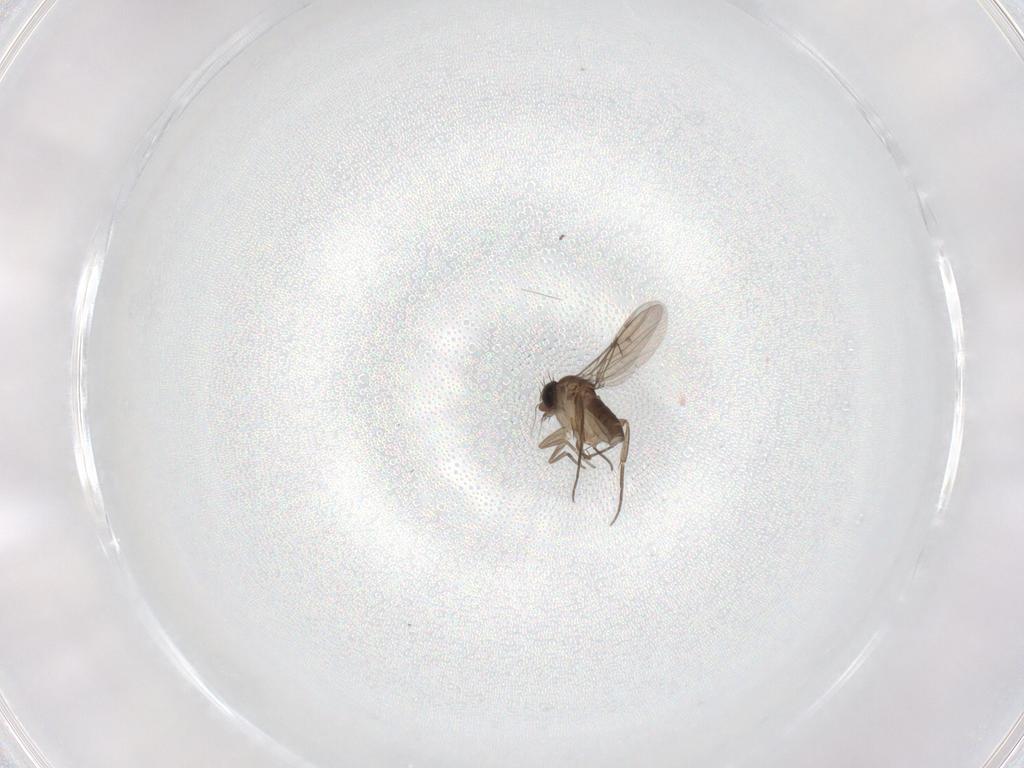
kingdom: Animalia
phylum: Arthropoda
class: Insecta
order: Diptera
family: Phoridae
